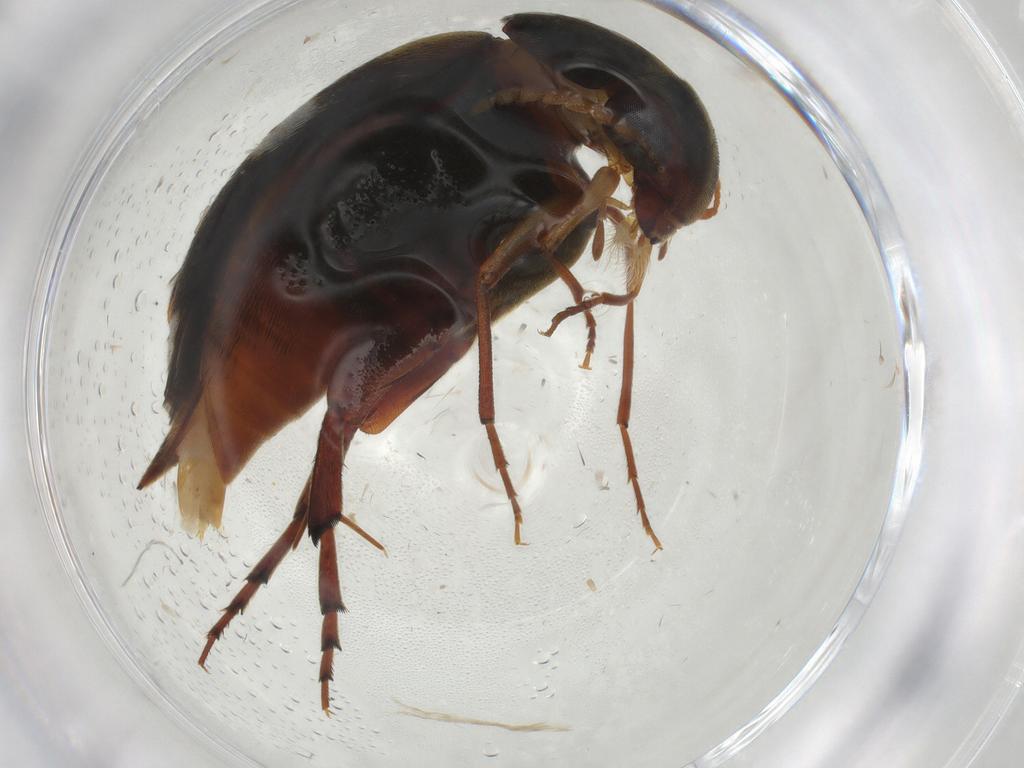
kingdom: Animalia
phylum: Arthropoda
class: Insecta
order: Coleoptera
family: Mordellidae
